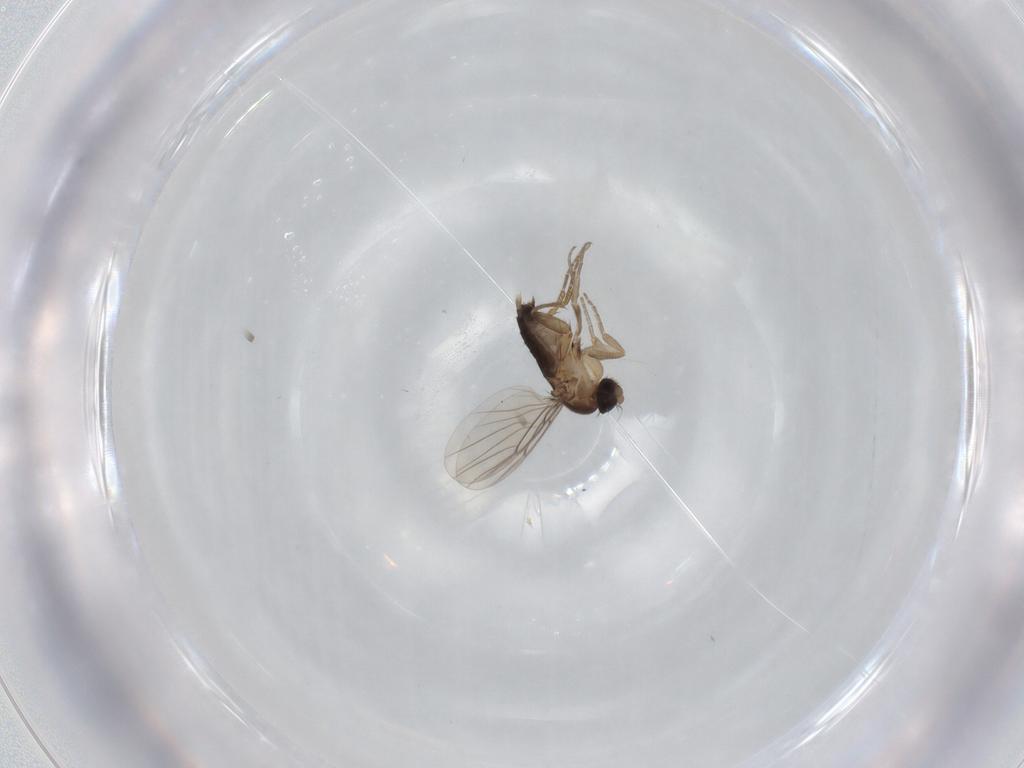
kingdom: Animalia
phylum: Arthropoda
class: Insecta
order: Diptera
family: Phoridae
